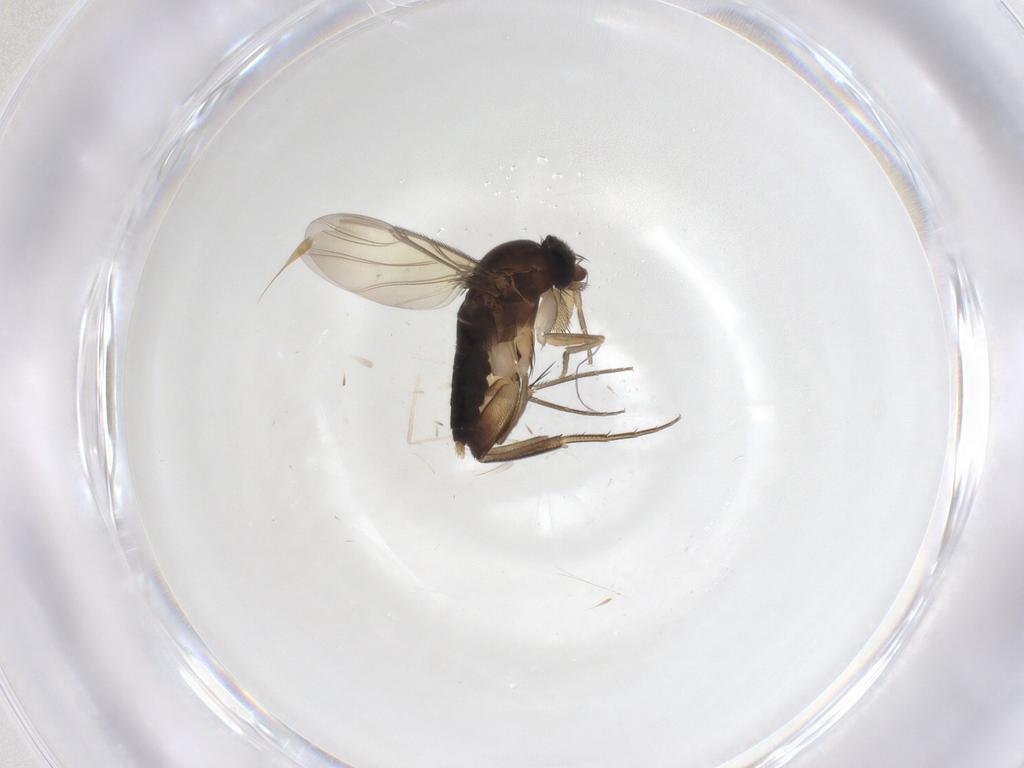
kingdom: Animalia
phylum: Arthropoda
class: Insecta
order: Diptera
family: Phoridae
